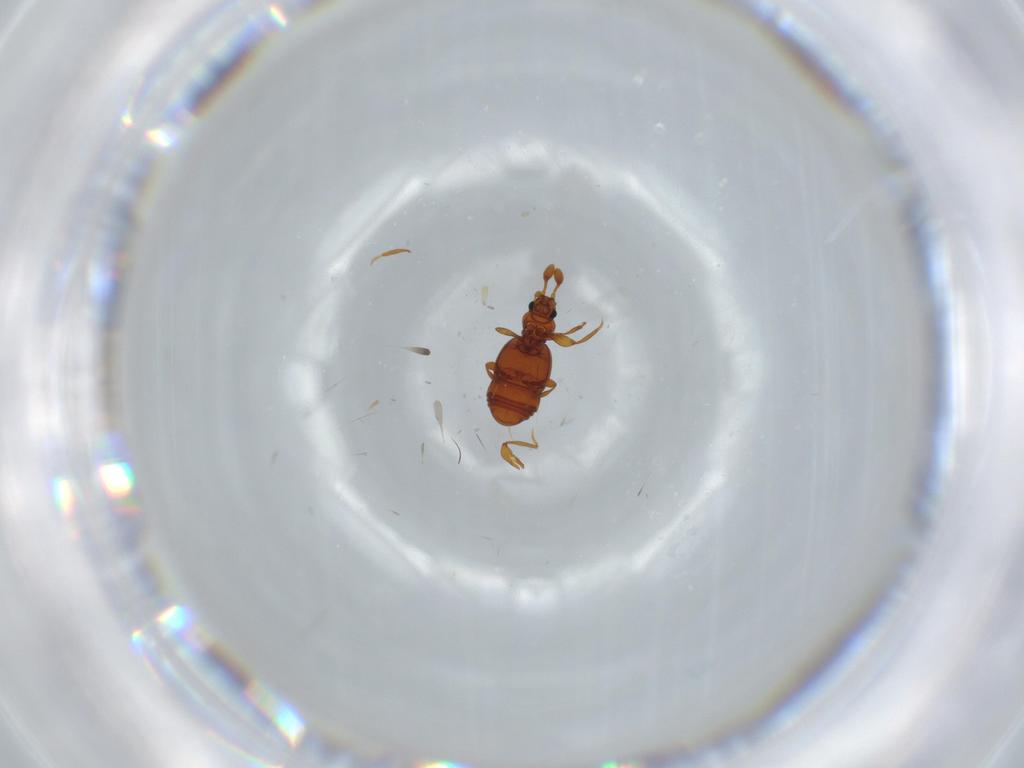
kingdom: Animalia
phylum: Arthropoda
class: Insecta
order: Coleoptera
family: Staphylinidae
